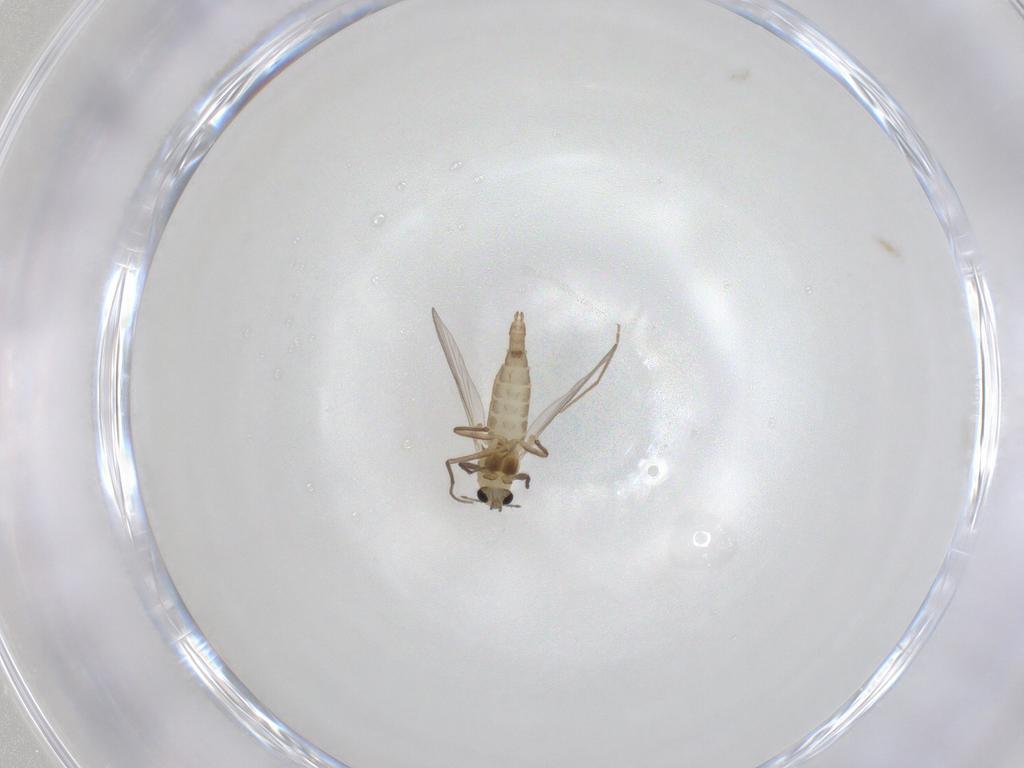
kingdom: Animalia
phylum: Arthropoda
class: Insecta
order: Diptera
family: Chironomidae
